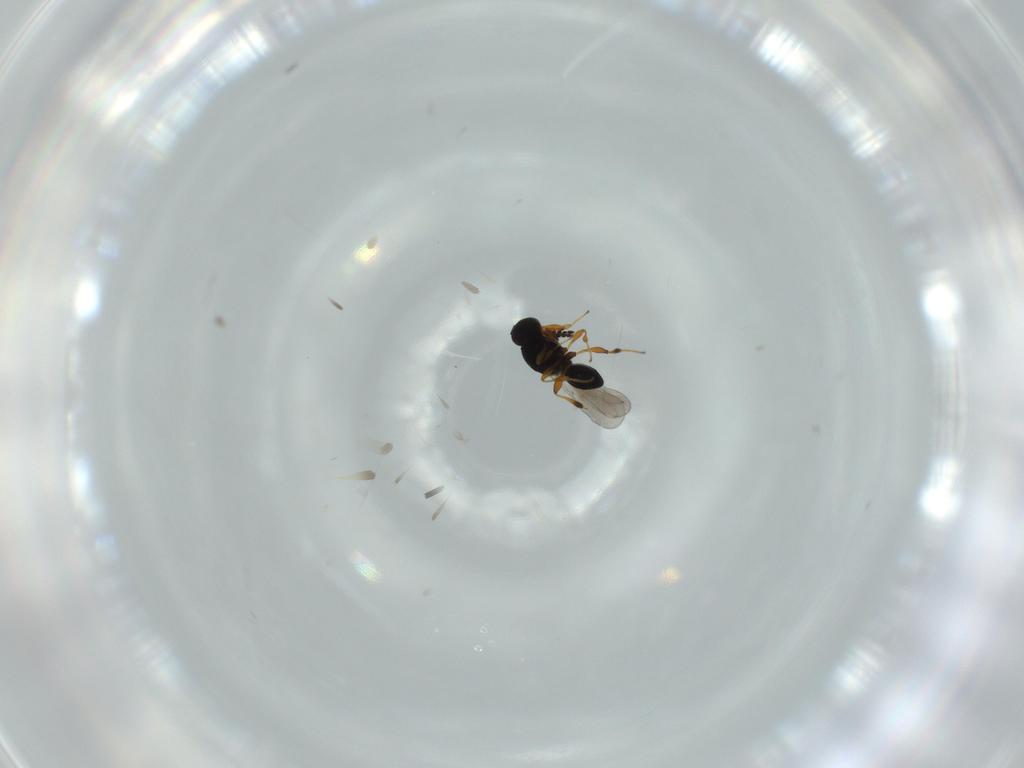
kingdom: Animalia
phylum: Arthropoda
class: Insecta
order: Hymenoptera
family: Platygastridae
